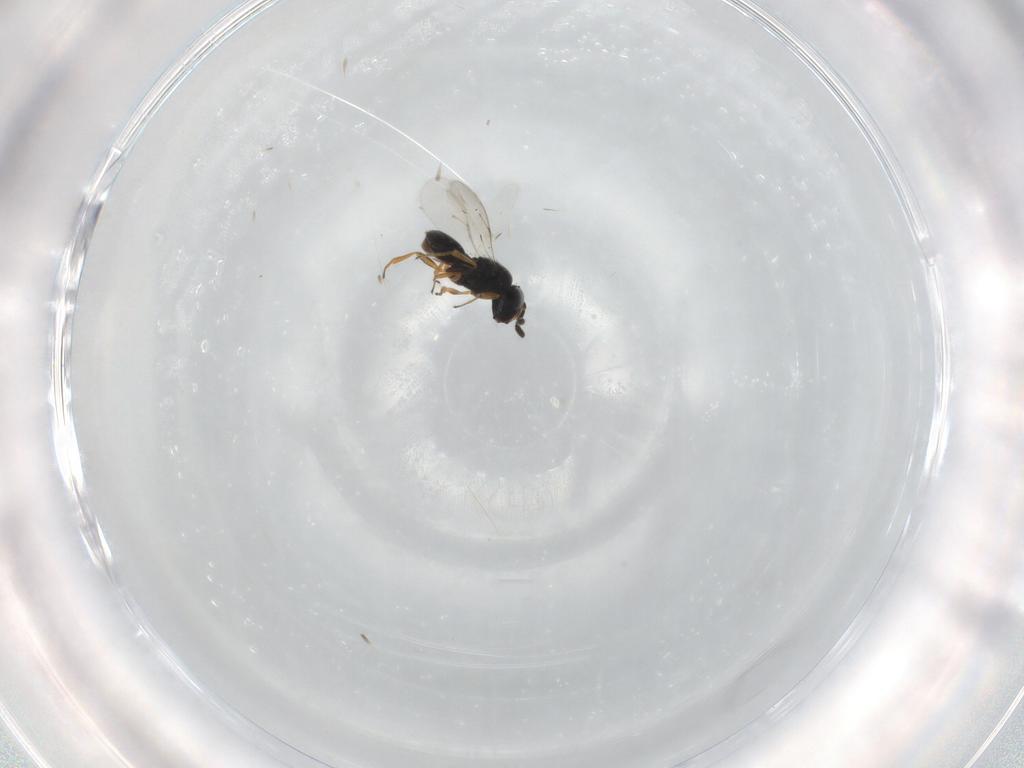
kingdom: Animalia
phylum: Arthropoda
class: Insecta
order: Hymenoptera
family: Scelionidae
